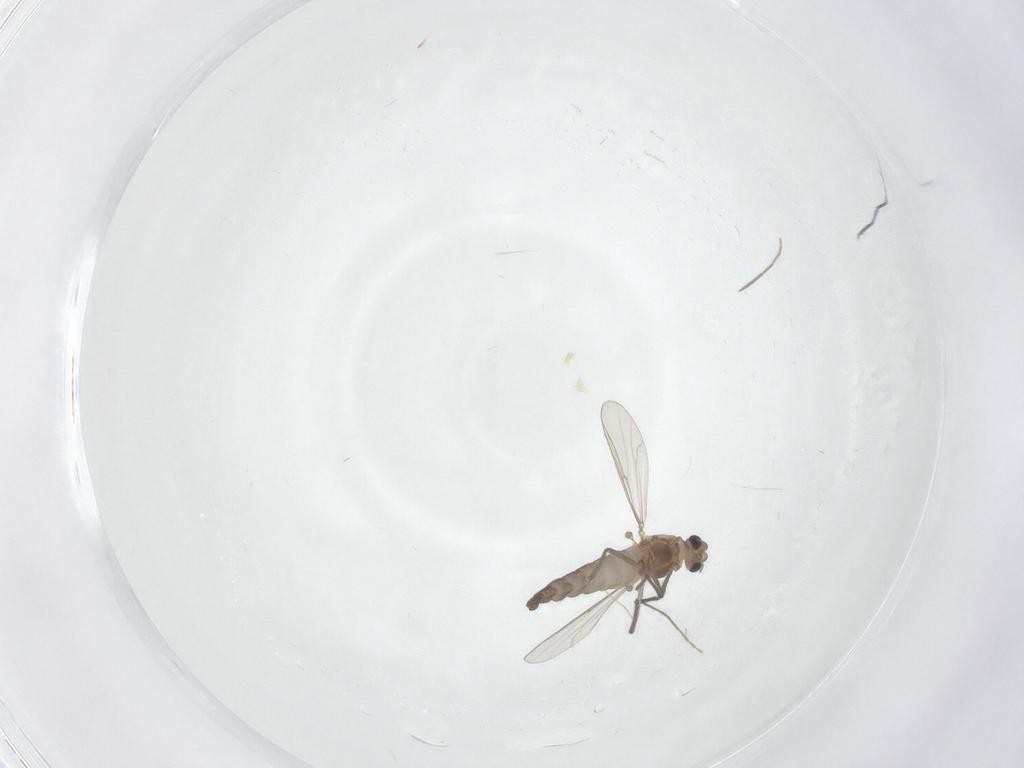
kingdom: Animalia
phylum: Arthropoda
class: Insecta
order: Diptera
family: Chironomidae
